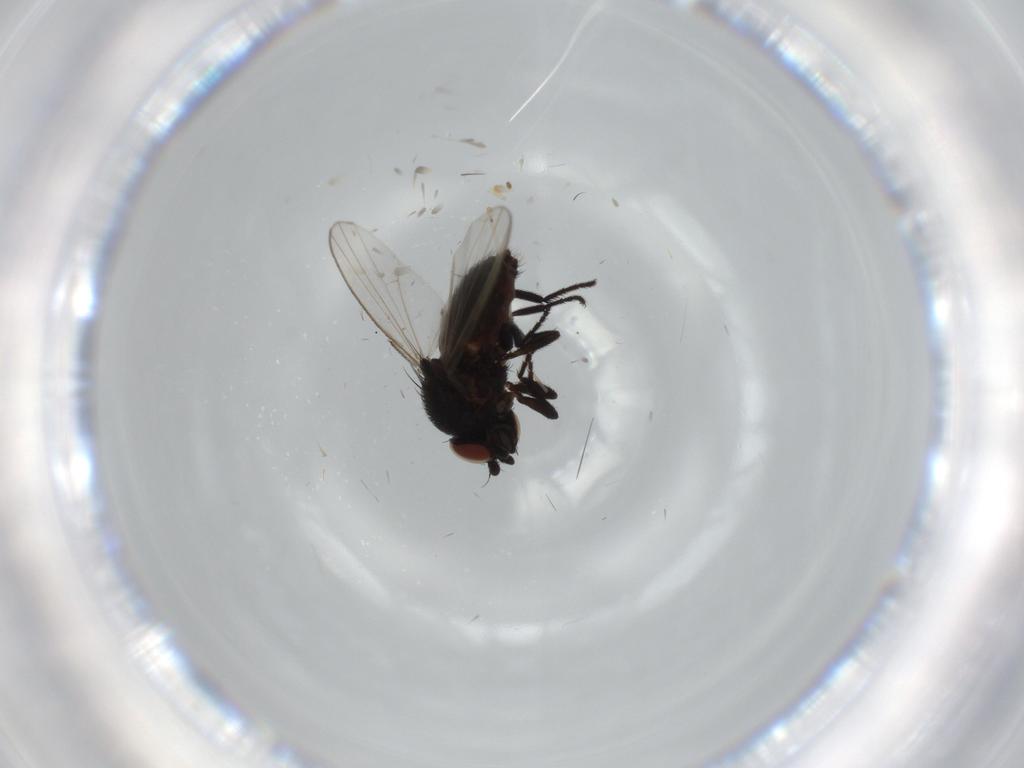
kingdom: Animalia
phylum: Arthropoda
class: Insecta
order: Diptera
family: Milichiidae
